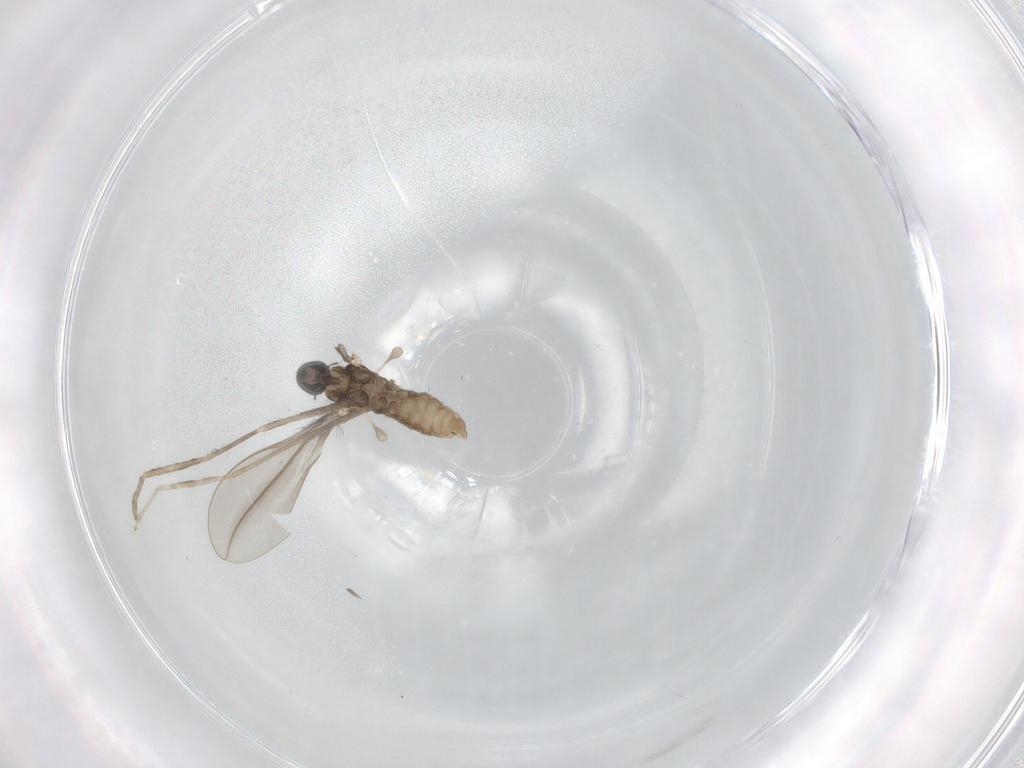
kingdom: Animalia
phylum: Arthropoda
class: Insecta
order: Diptera
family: Cecidomyiidae
